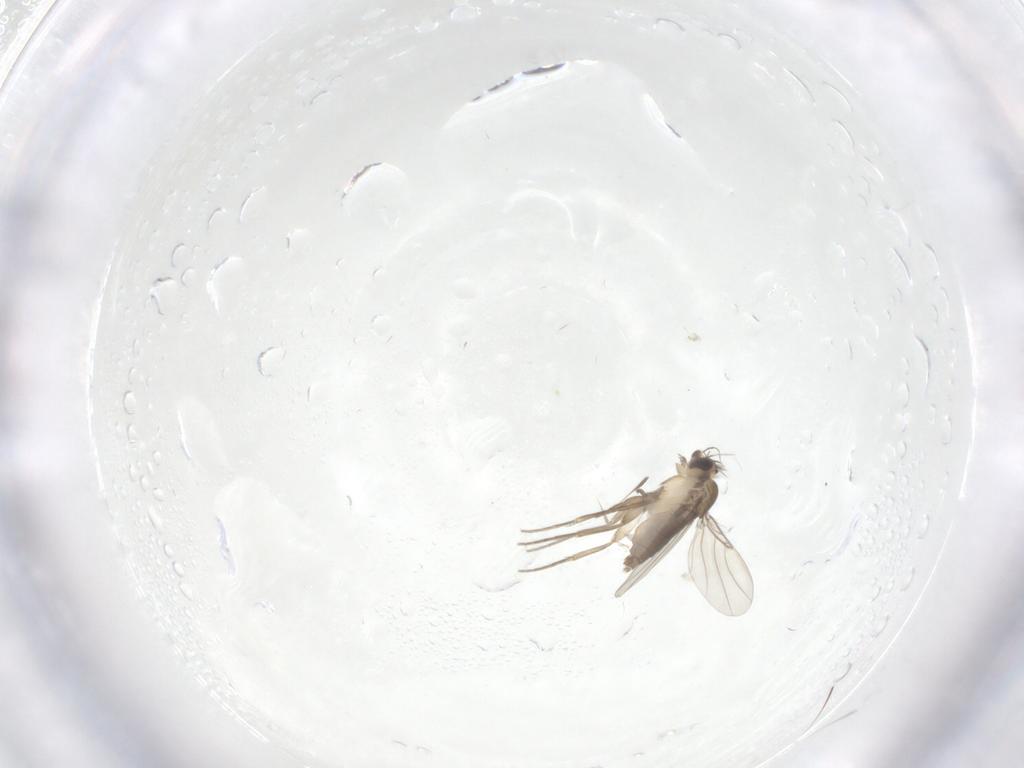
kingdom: Animalia
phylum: Arthropoda
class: Insecta
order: Diptera
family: Phoridae
